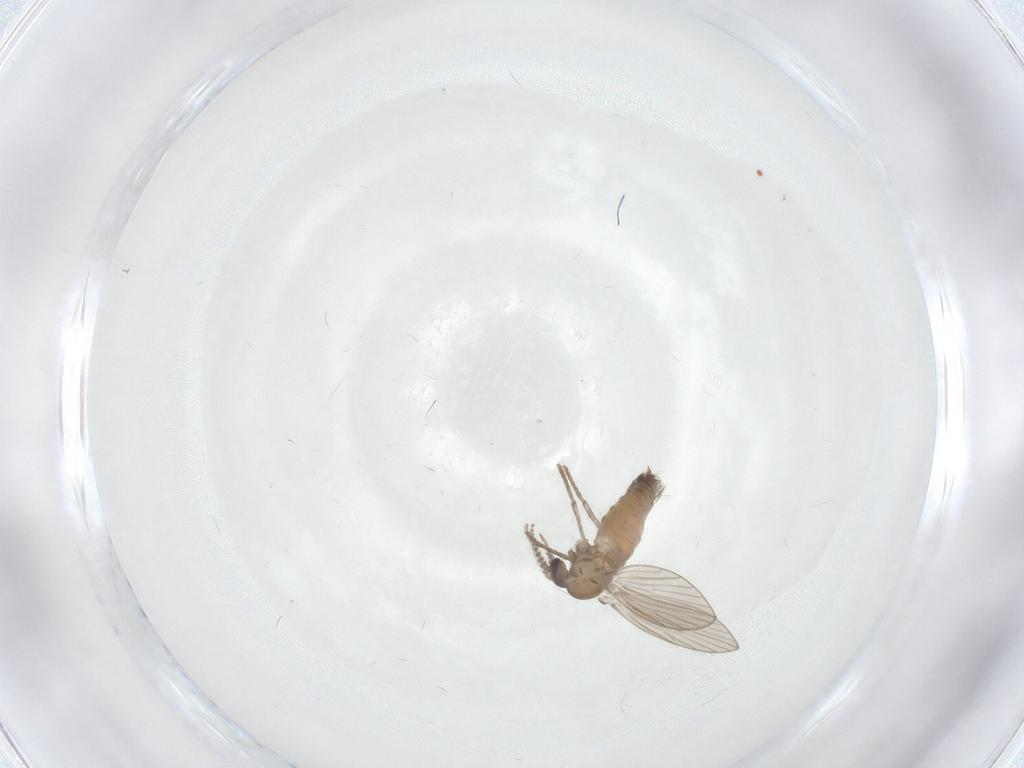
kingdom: Animalia
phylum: Arthropoda
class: Insecta
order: Diptera
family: Psychodidae
